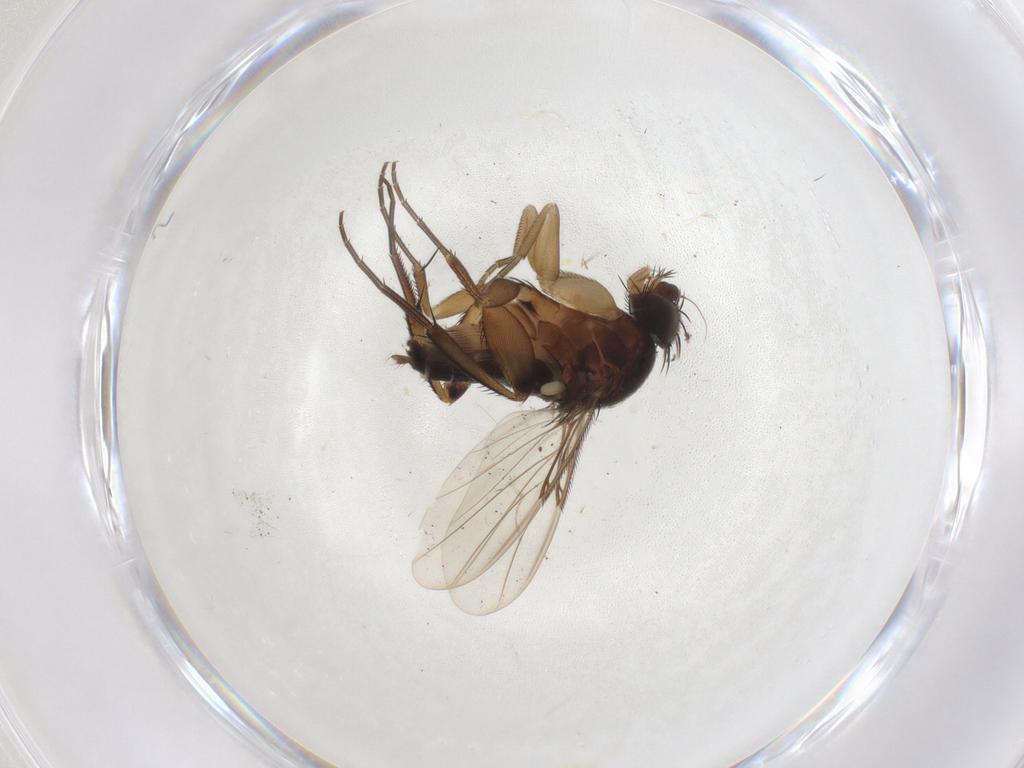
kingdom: Animalia
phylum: Arthropoda
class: Insecta
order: Diptera
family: Phoridae
